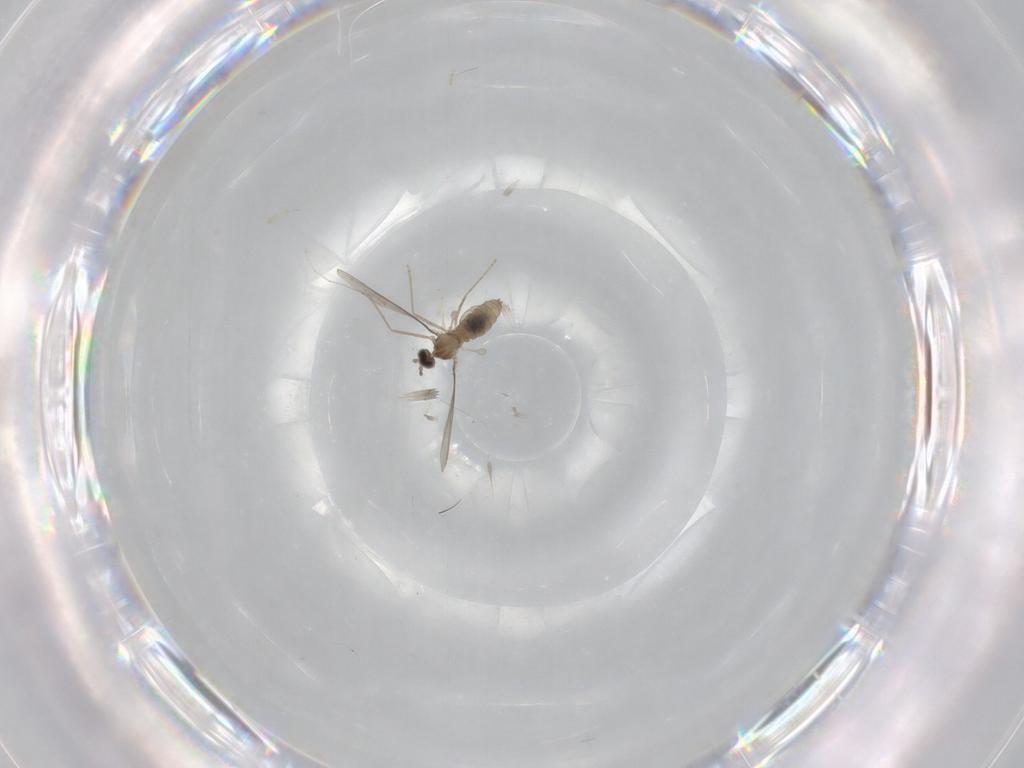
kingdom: Animalia
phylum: Arthropoda
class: Insecta
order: Diptera
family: Cecidomyiidae
